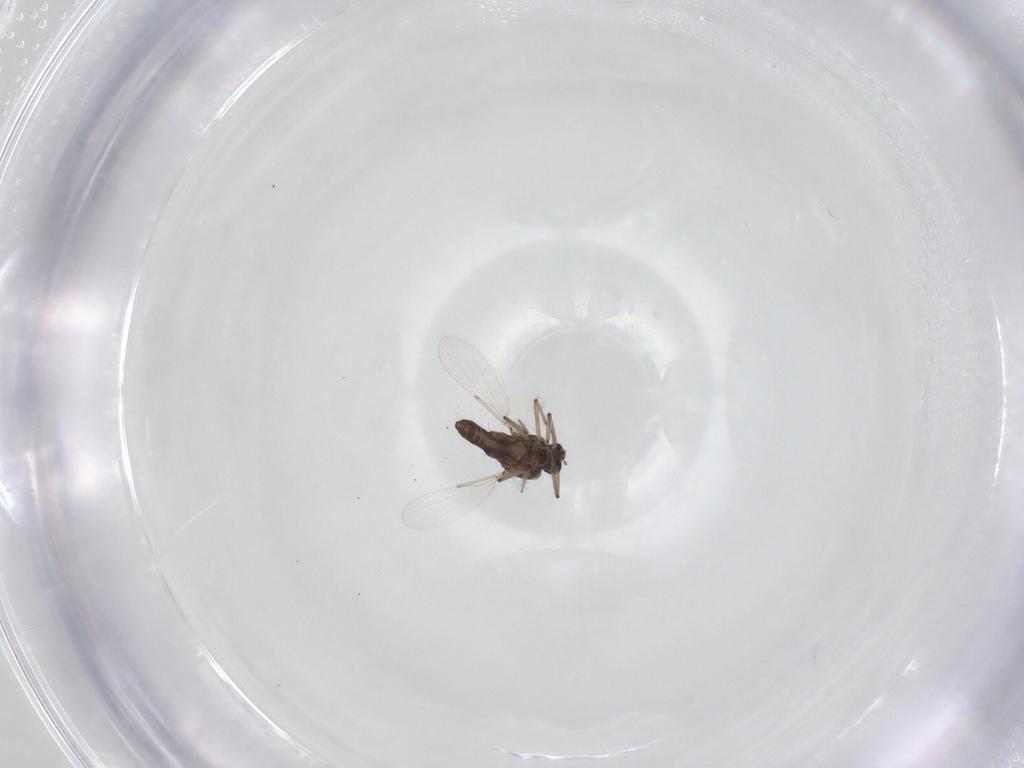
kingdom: Animalia
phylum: Arthropoda
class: Insecta
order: Diptera
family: Ceratopogonidae
